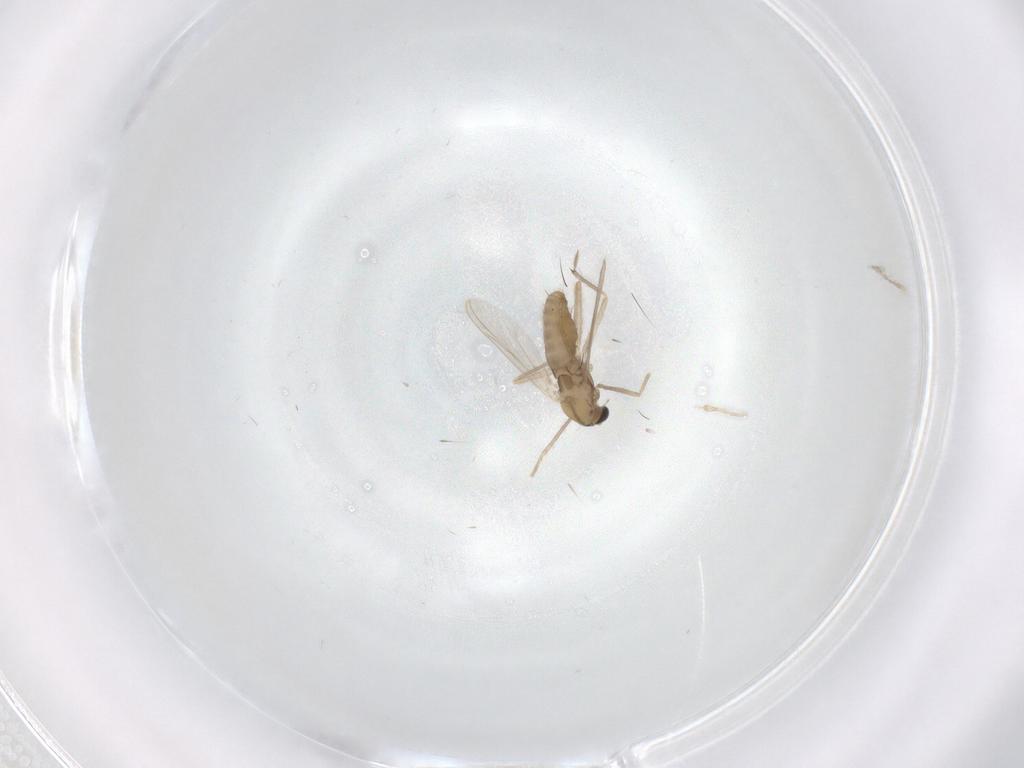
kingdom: Animalia
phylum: Arthropoda
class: Insecta
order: Diptera
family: Chironomidae
